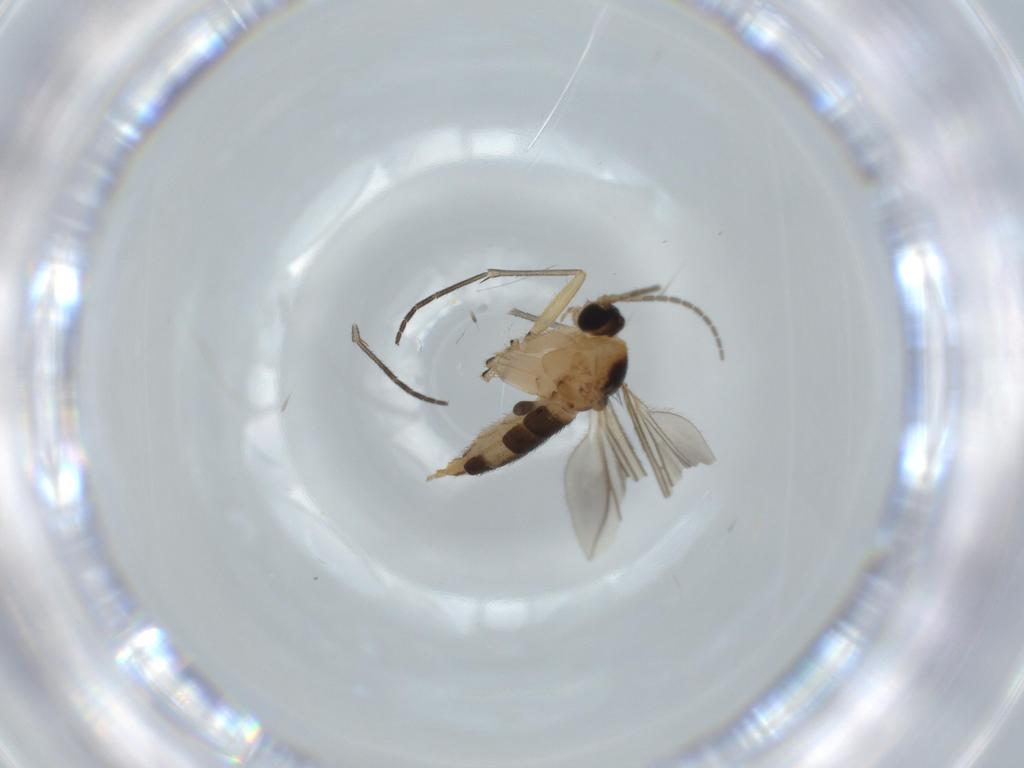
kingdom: Animalia
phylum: Arthropoda
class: Insecta
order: Diptera
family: Sciaridae
